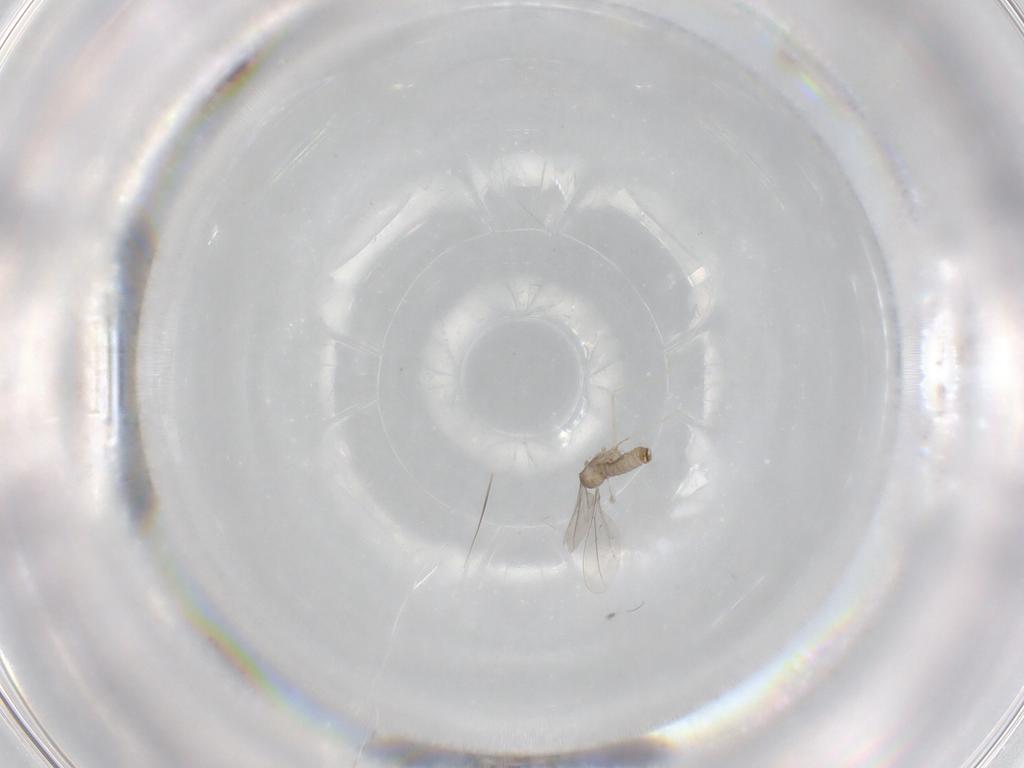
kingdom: Animalia
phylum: Arthropoda
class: Insecta
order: Diptera
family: Cecidomyiidae
